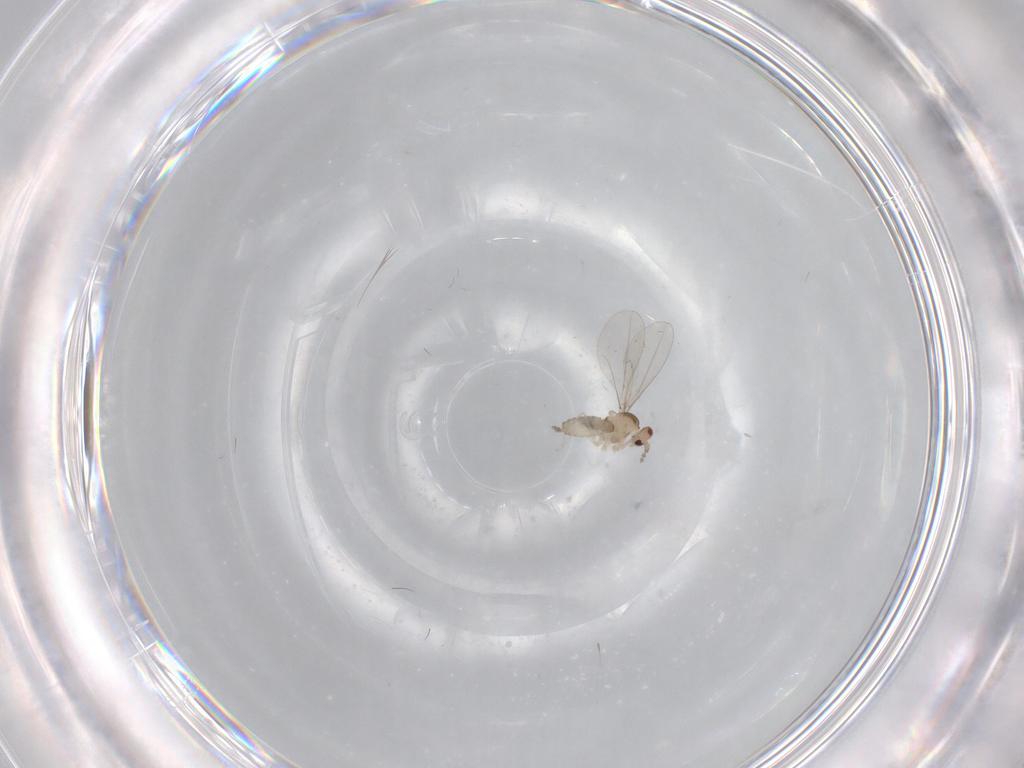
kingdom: Animalia
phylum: Arthropoda
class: Insecta
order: Diptera
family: Cecidomyiidae
